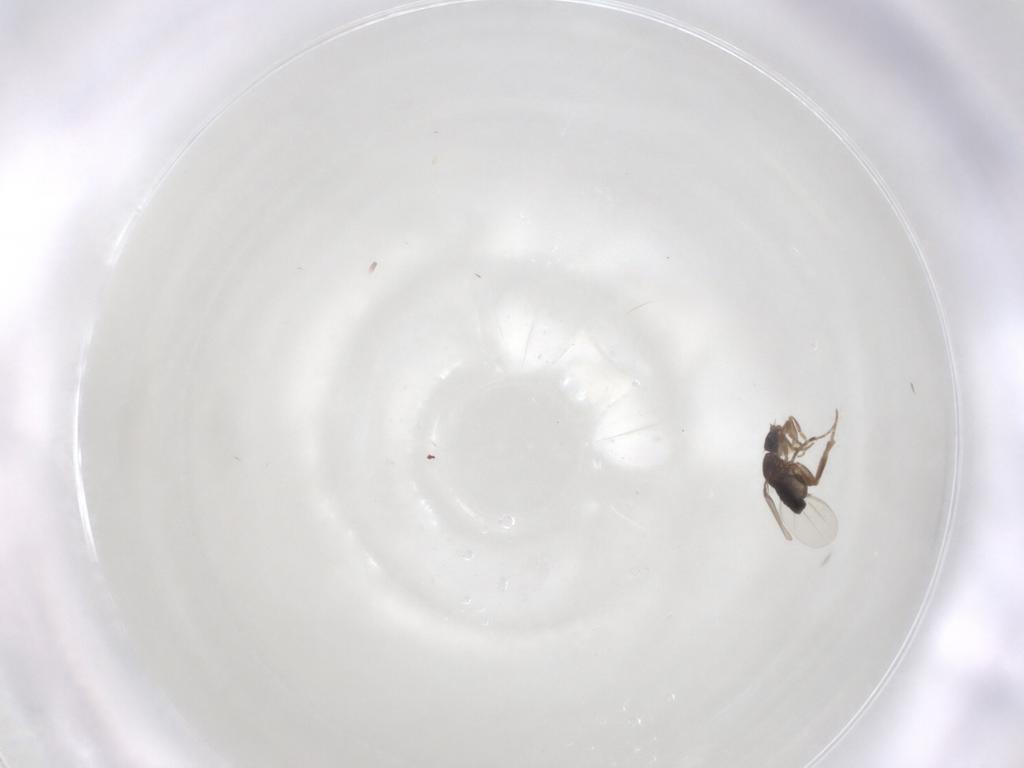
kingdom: Animalia
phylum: Arthropoda
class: Insecta
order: Diptera
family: Phoridae
